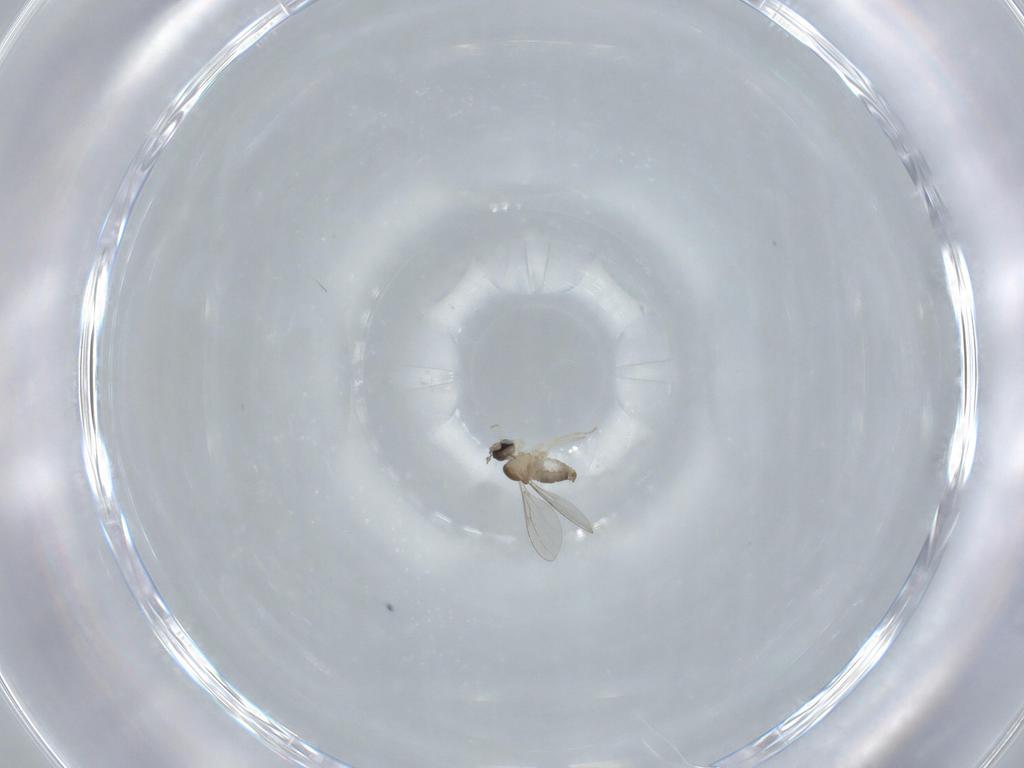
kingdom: Animalia
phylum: Arthropoda
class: Insecta
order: Diptera
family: Cecidomyiidae
